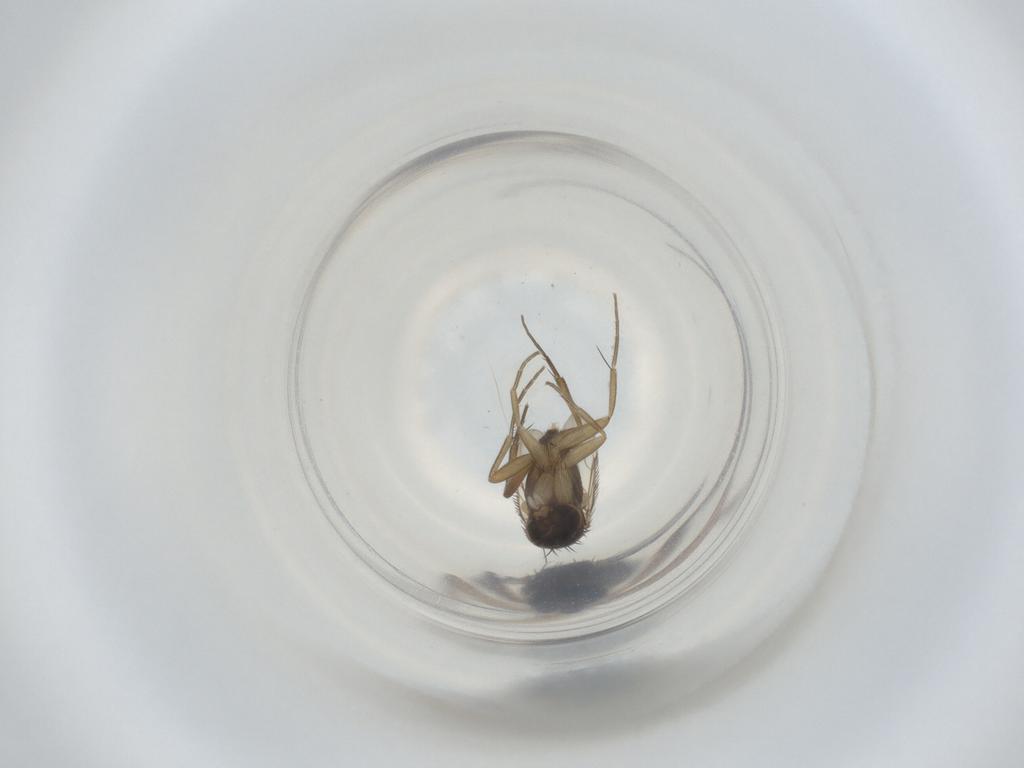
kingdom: Animalia
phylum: Arthropoda
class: Insecta
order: Diptera
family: Phoridae
